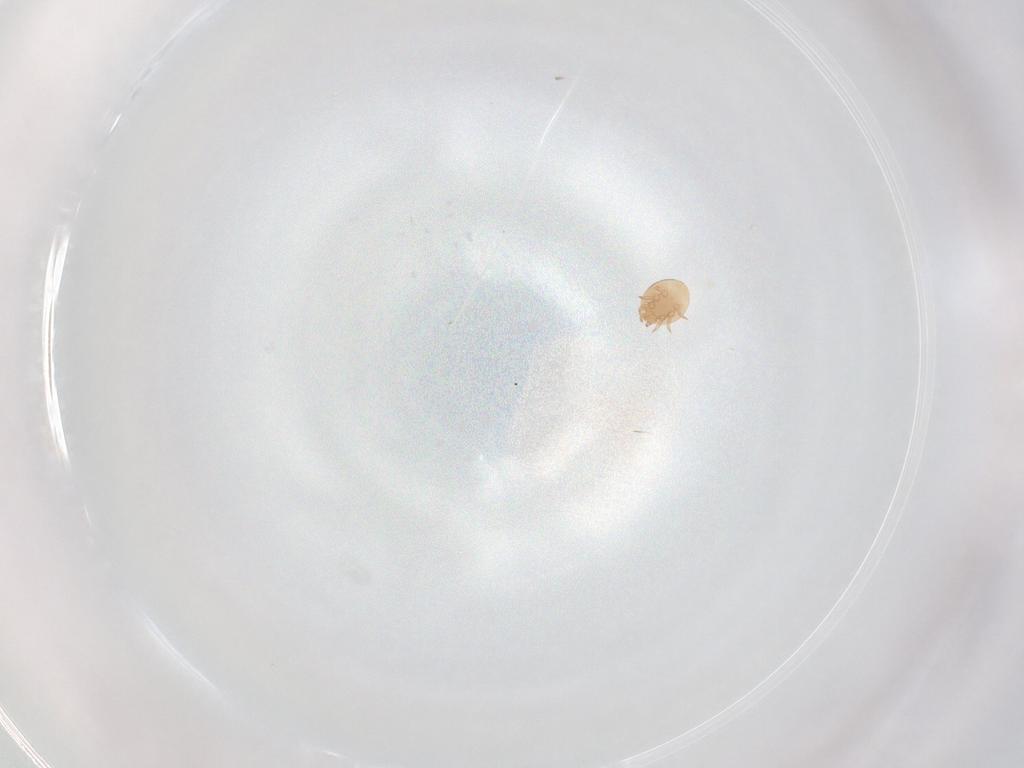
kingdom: Animalia
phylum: Arthropoda
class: Arachnida
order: Mesostigmata
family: Trematuridae
